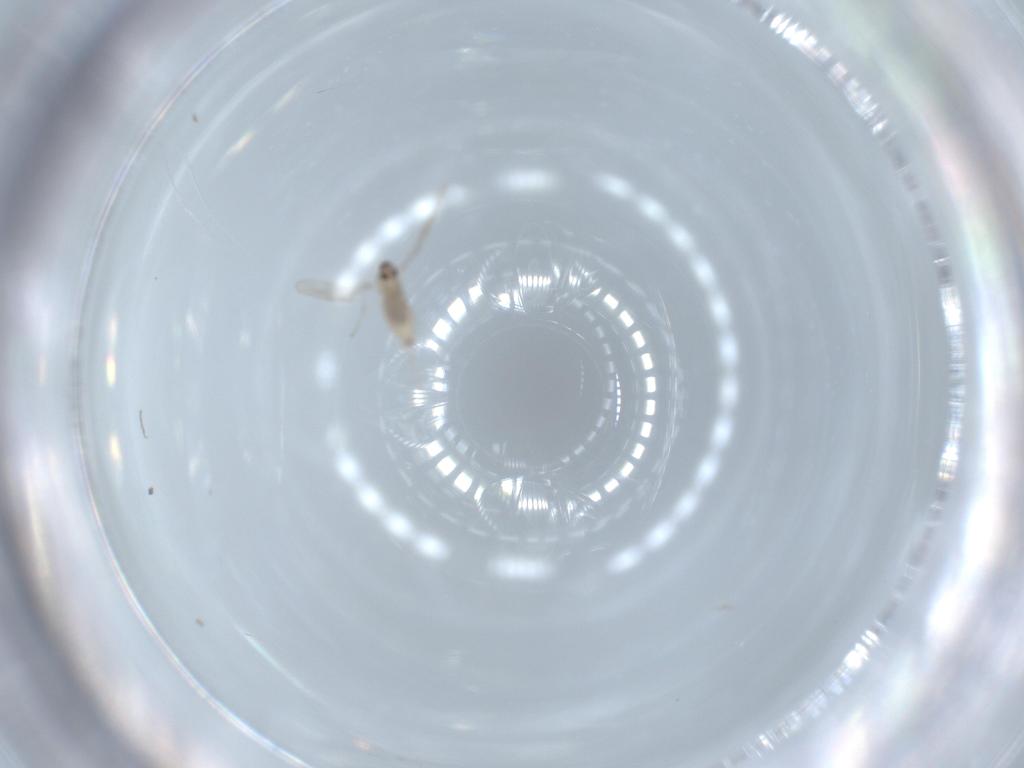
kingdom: Animalia
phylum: Arthropoda
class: Insecta
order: Diptera
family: Cecidomyiidae
